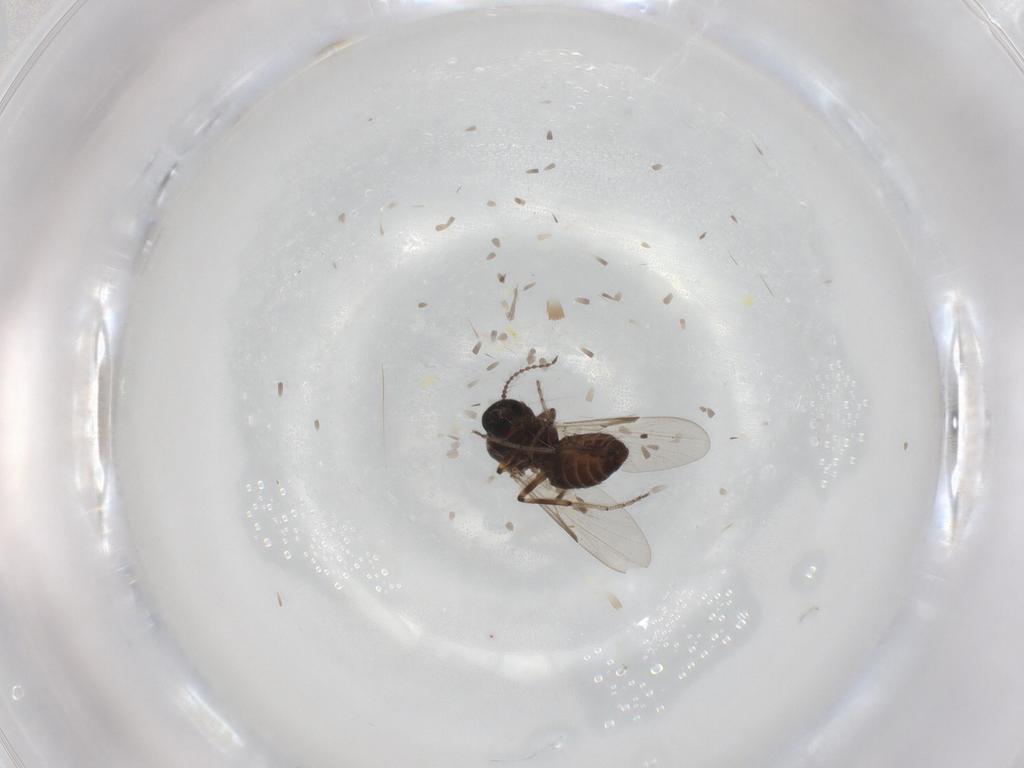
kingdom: Animalia
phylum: Arthropoda
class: Insecta
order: Diptera
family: Ceratopogonidae
